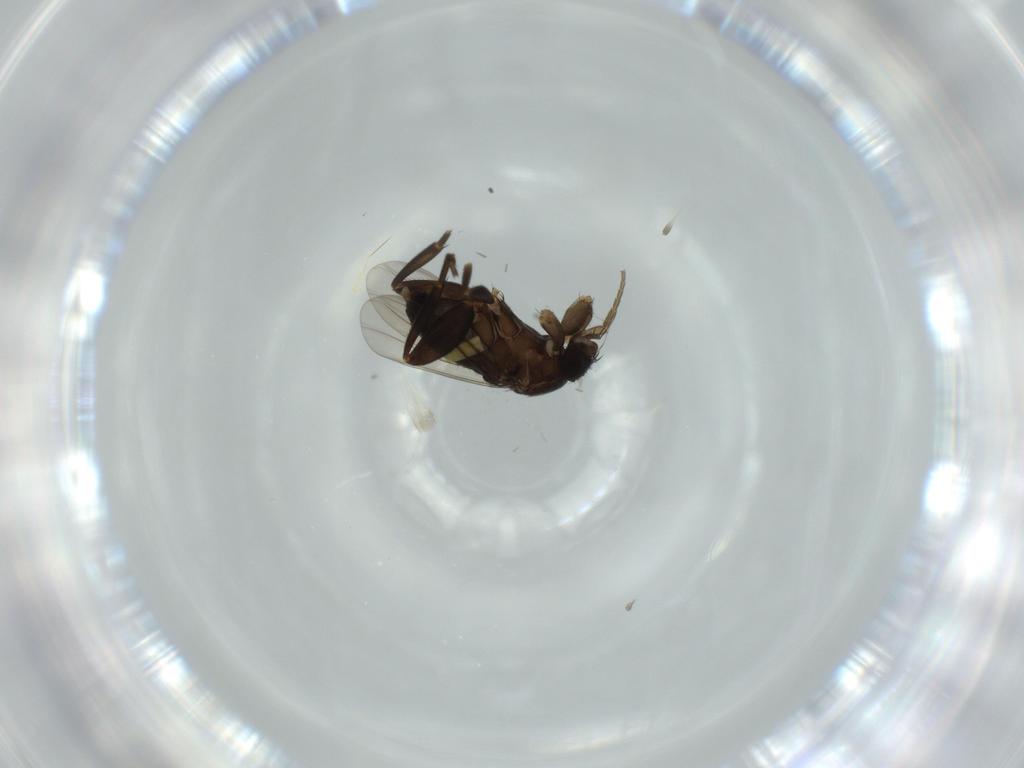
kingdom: Animalia
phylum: Arthropoda
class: Insecta
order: Diptera
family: Phoridae
